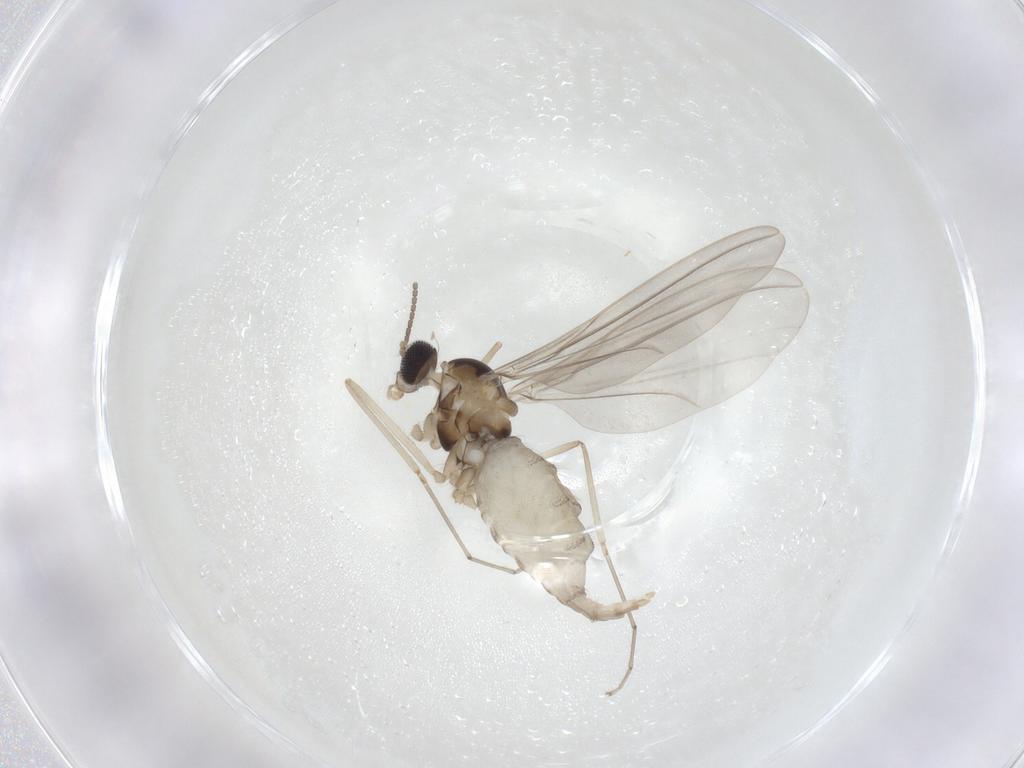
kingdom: Animalia
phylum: Arthropoda
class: Insecta
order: Diptera
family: Cecidomyiidae
